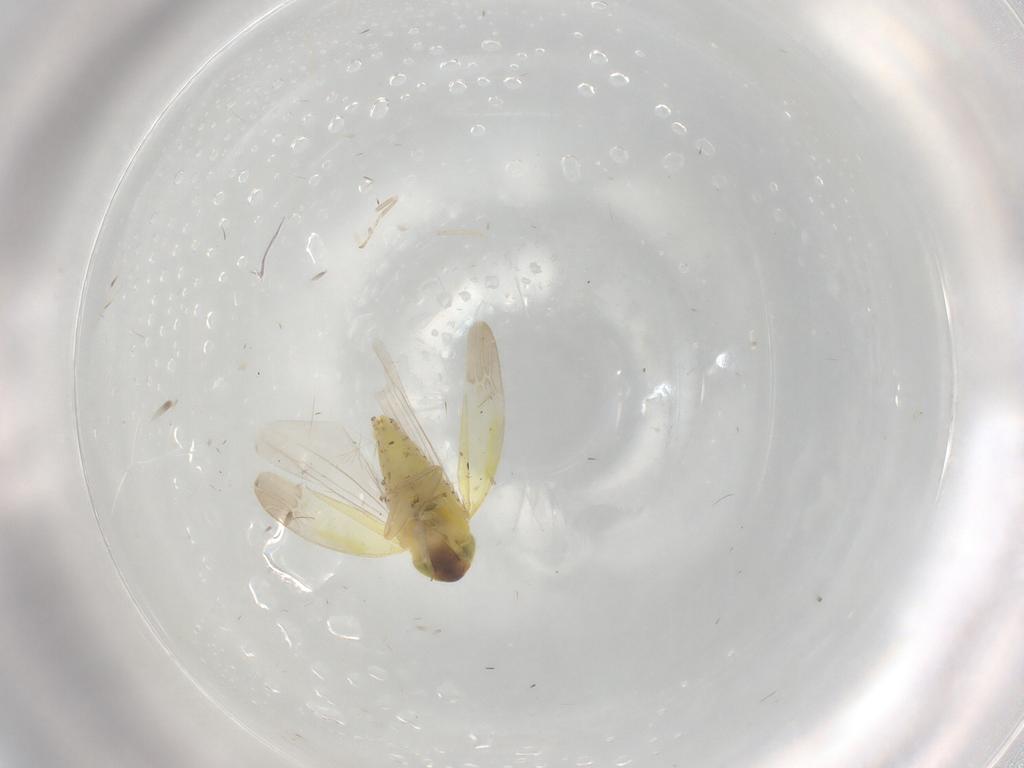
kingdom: Animalia
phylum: Arthropoda
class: Insecta
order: Hemiptera
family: Cicadellidae
